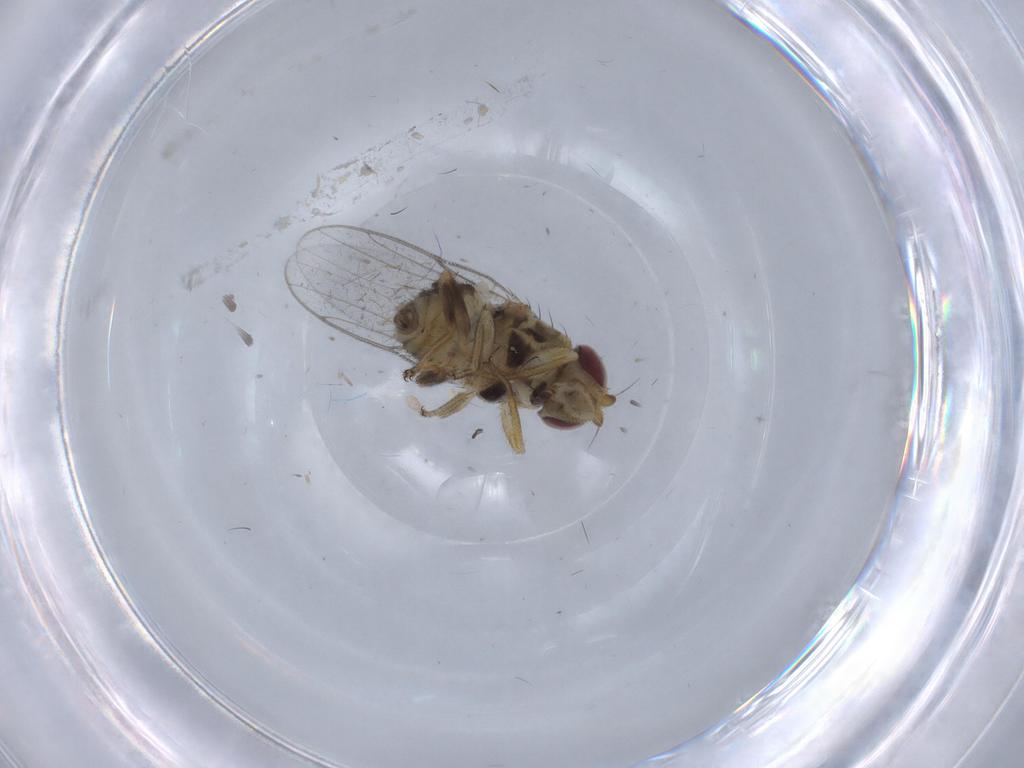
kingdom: Animalia
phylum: Arthropoda
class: Insecta
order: Diptera
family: Chloropidae
